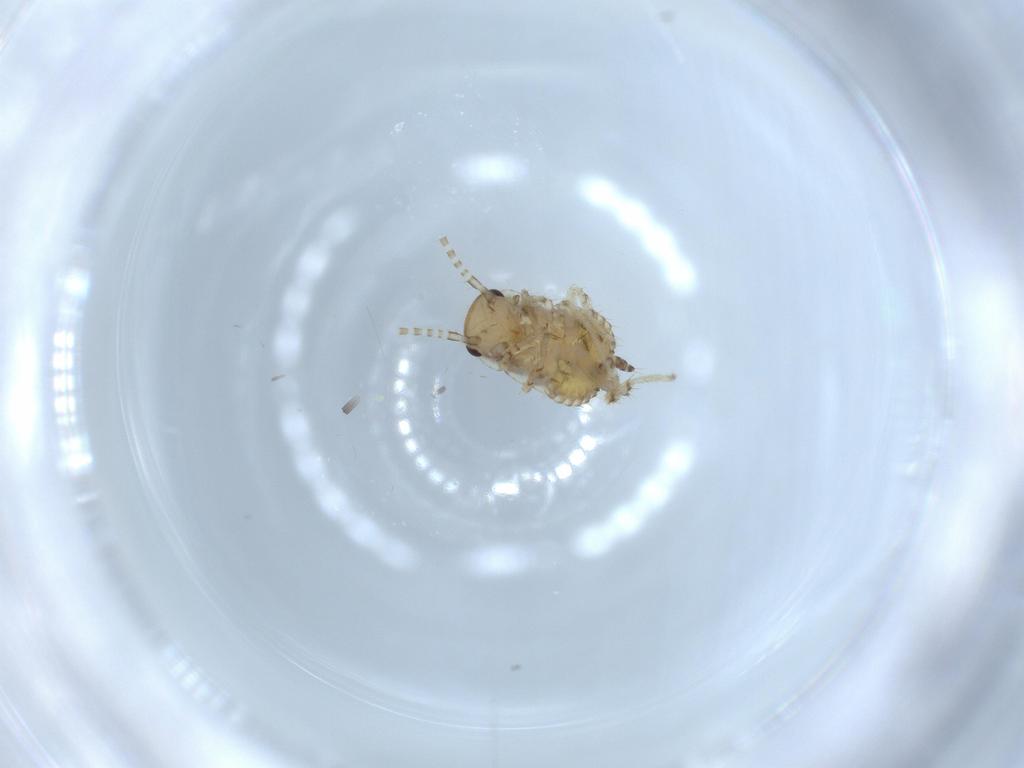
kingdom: Animalia
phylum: Arthropoda
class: Insecta
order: Blattodea
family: Ectobiidae
